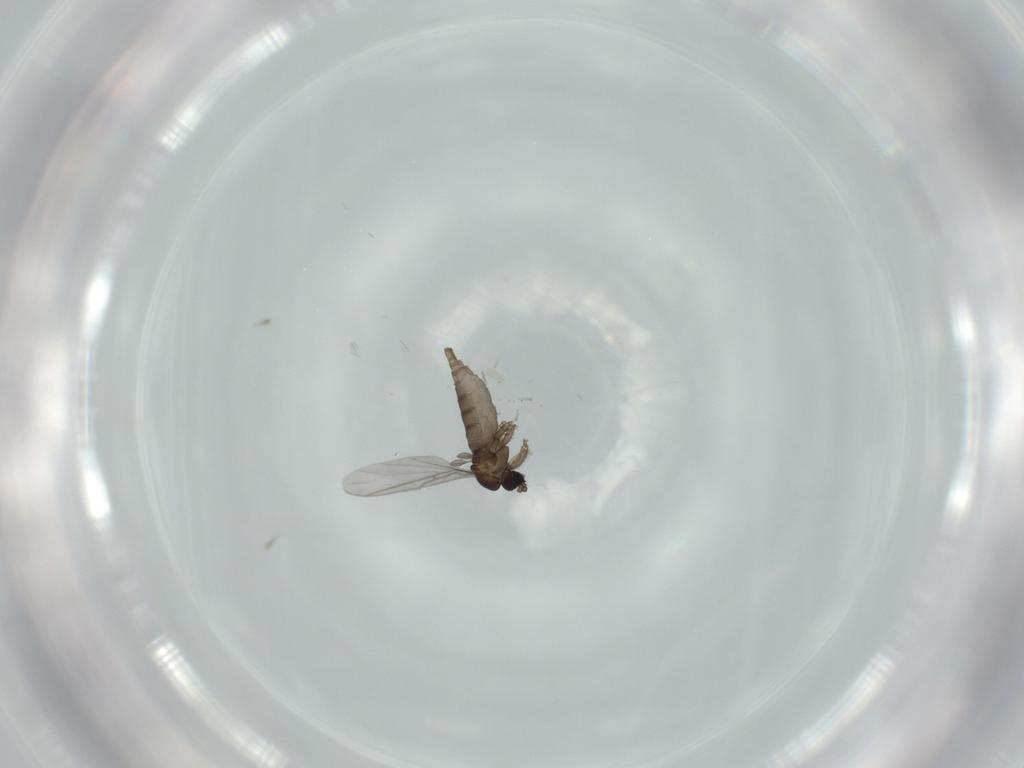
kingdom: Animalia
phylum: Arthropoda
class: Insecta
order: Diptera
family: Sciaridae
